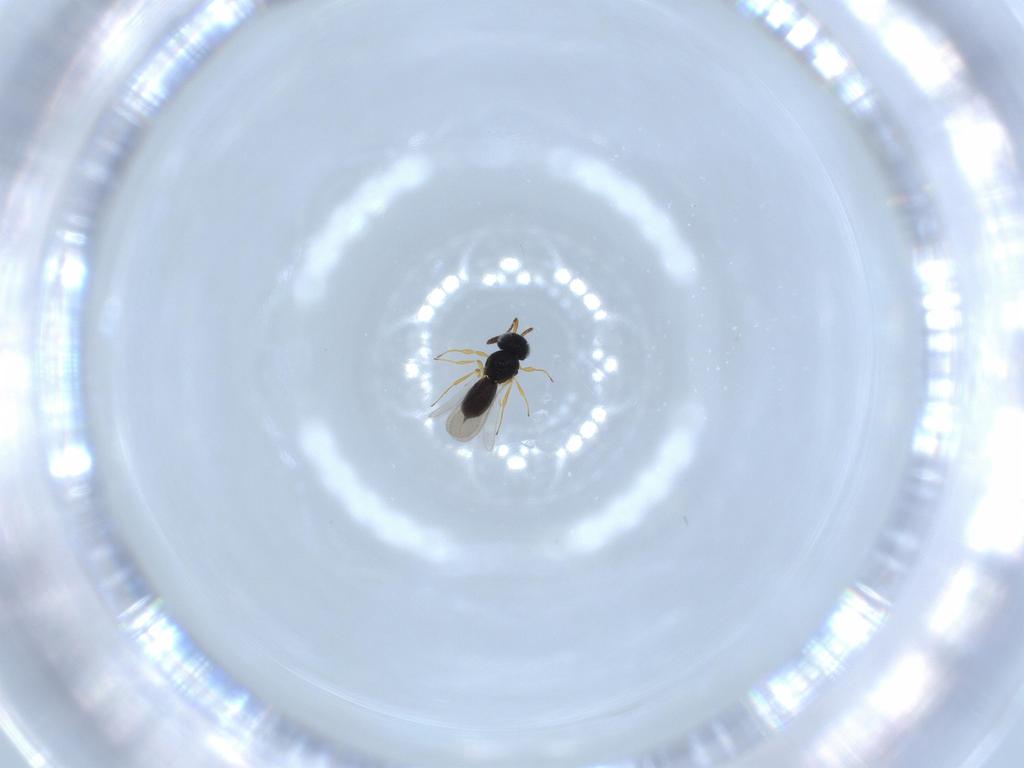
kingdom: Animalia
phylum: Arthropoda
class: Insecta
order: Hymenoptera
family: Scelionidae
